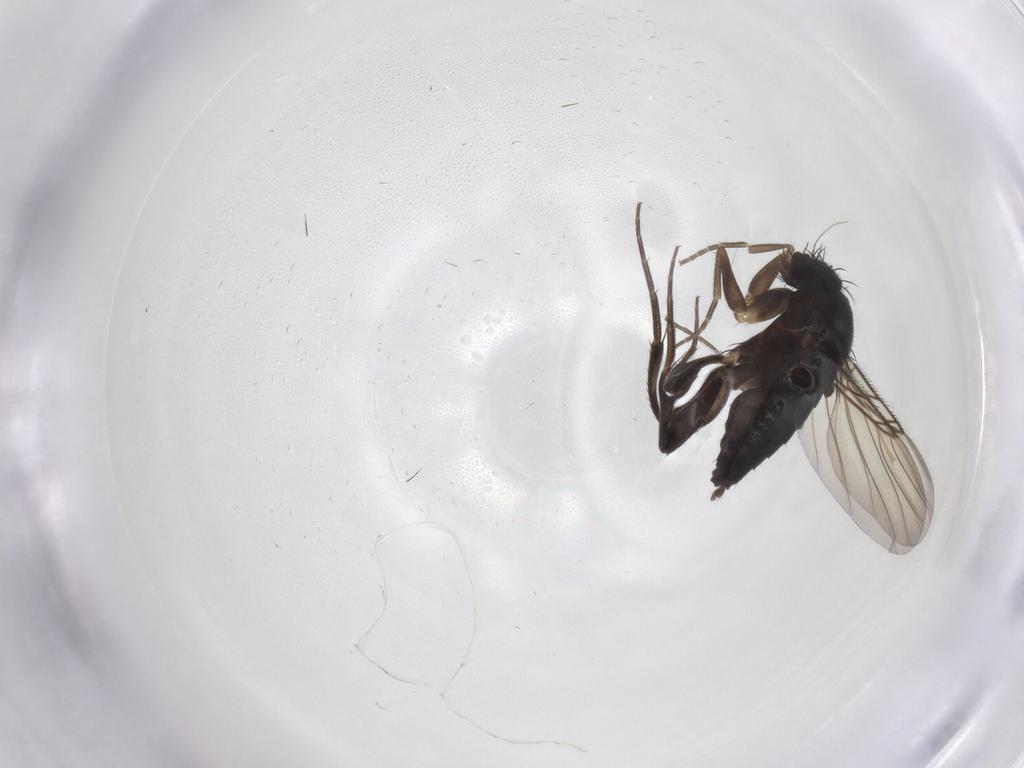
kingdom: Animalia
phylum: Arthropoda
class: Insecta
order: Diptera
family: Phoridae
